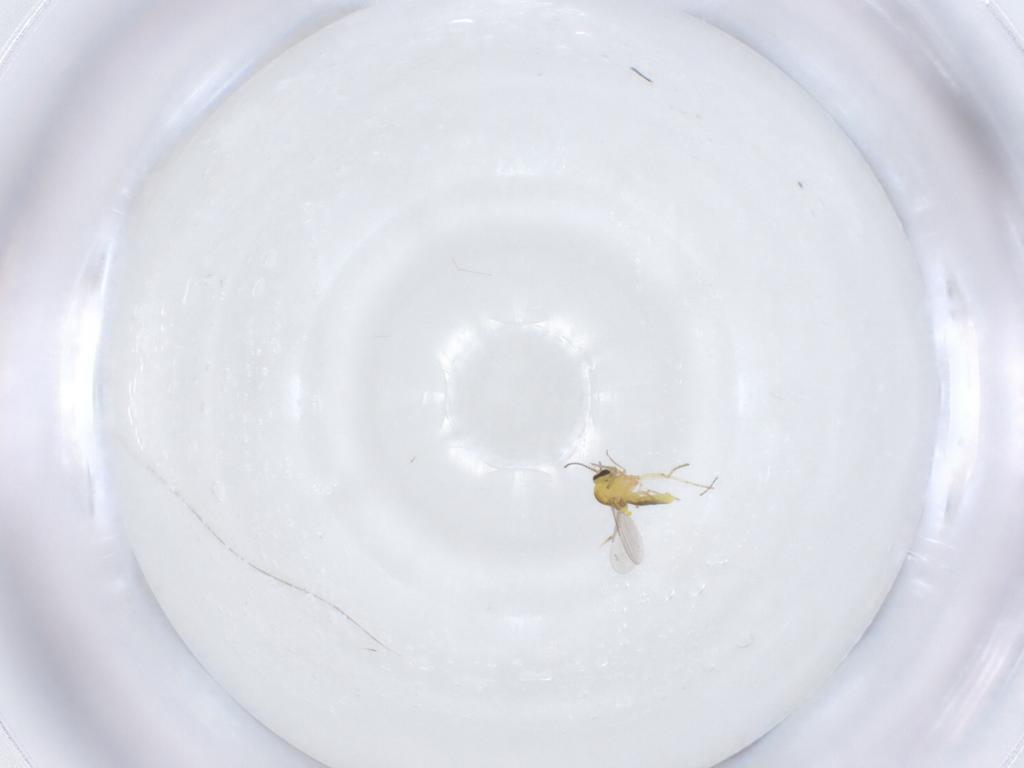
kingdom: Animalia
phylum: Arthropoda
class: Insecta
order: Diptera
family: Ceratopogonidae
